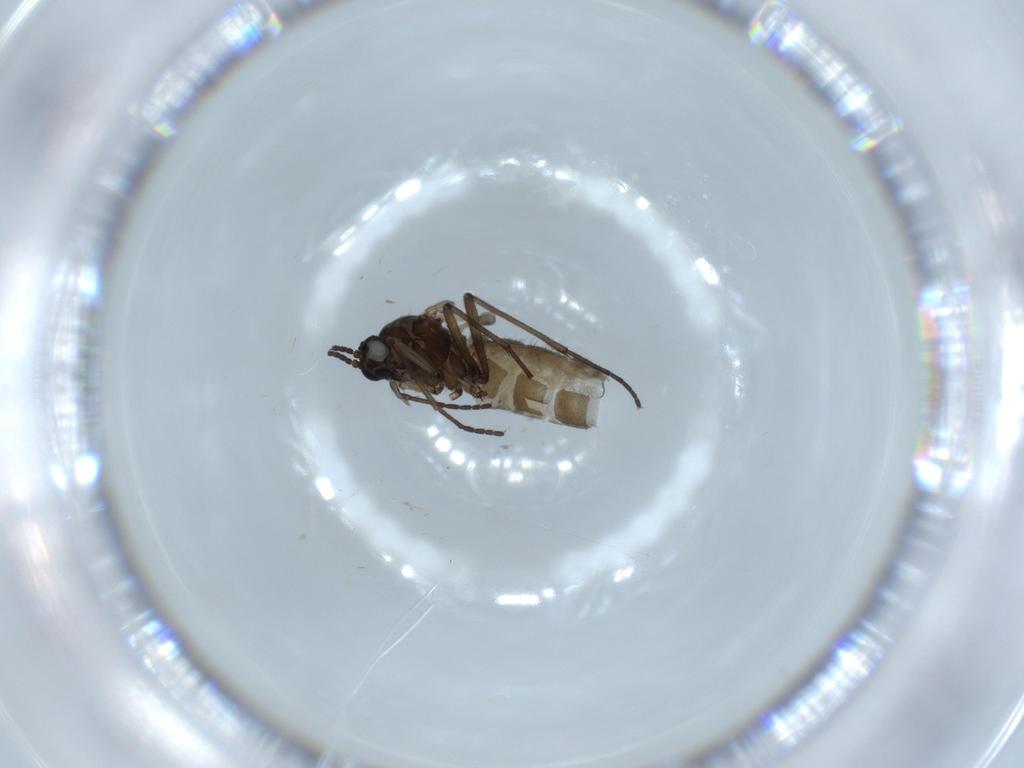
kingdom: Animalia
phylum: Arthropoda
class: Insecta
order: Diptera
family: Sciaridae
